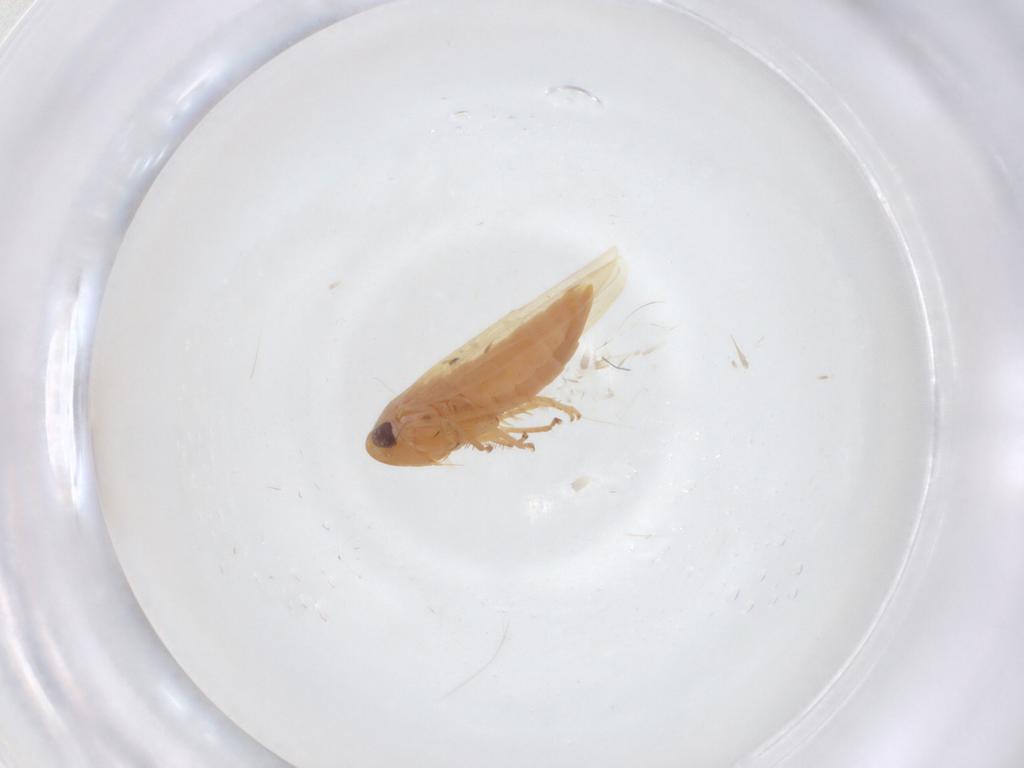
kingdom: Animalia
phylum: Arthropoda
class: Insecta
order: Hemiptera
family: Cicadellidae
